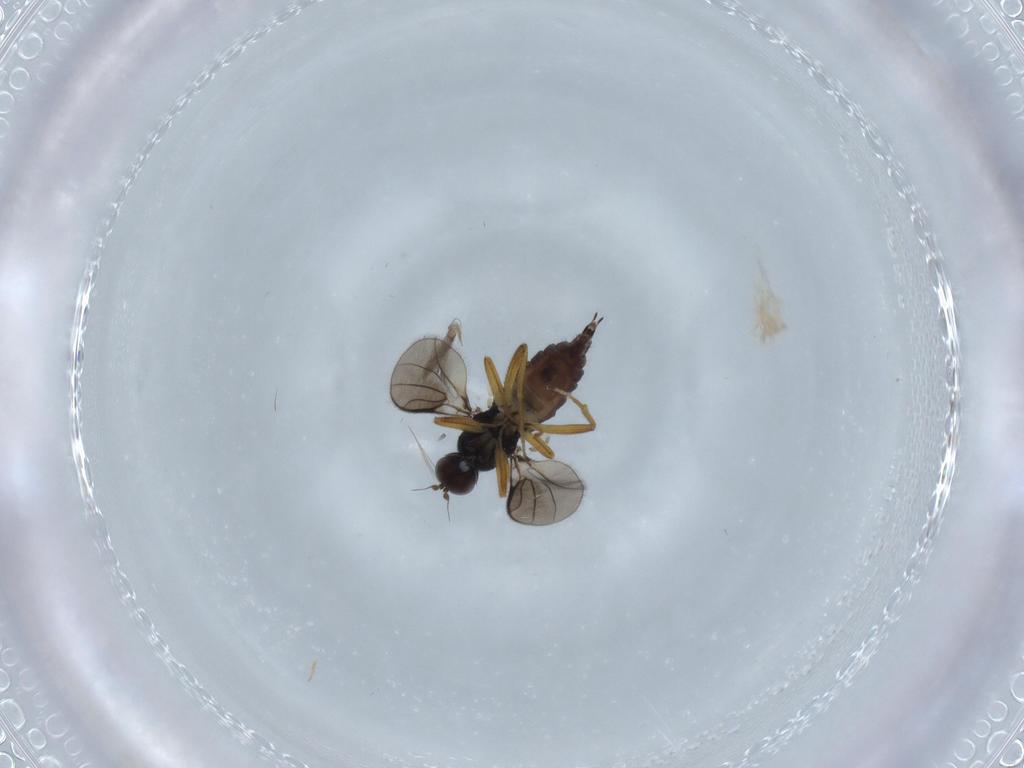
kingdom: Animalia
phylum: Arthropoda
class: Insecta
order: Diptera
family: Hybotidae
